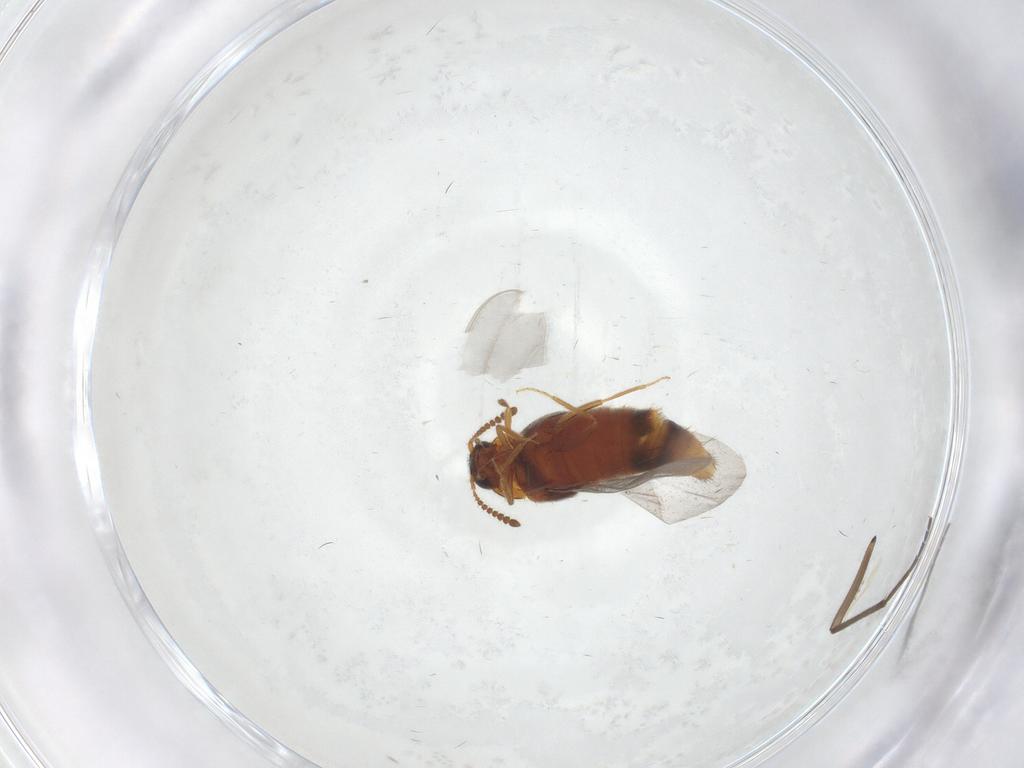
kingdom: Animalia
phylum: Arthropoda
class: Insecta
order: Coleoptera
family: Staphylinidae
